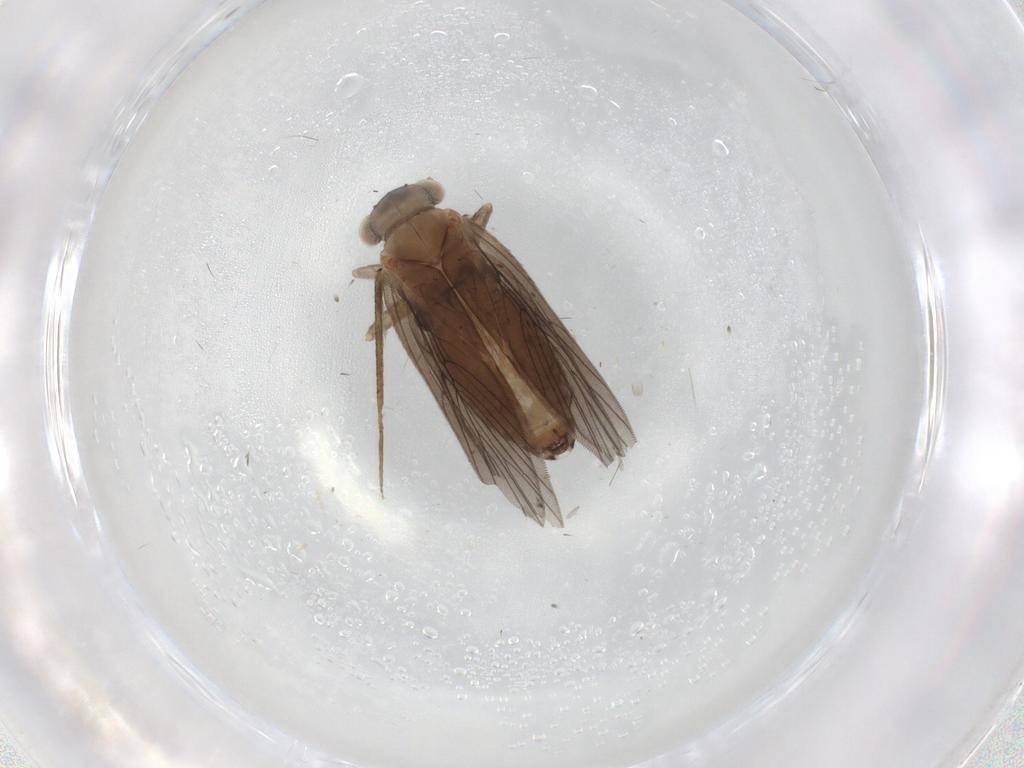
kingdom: Animalia
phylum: Arthropoda
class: Insecta
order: Psocodea
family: Lepidopsocidae
